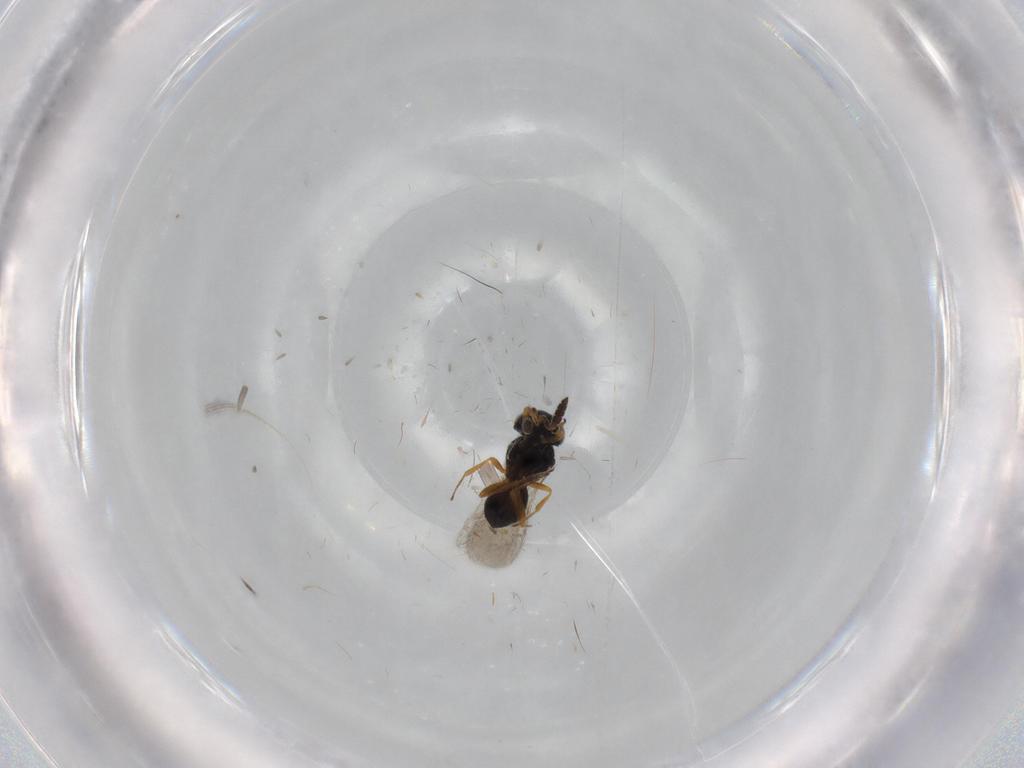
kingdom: Animalia
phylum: Arthropoda
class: Insecta
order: Hymenoptera
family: Scelionidae
